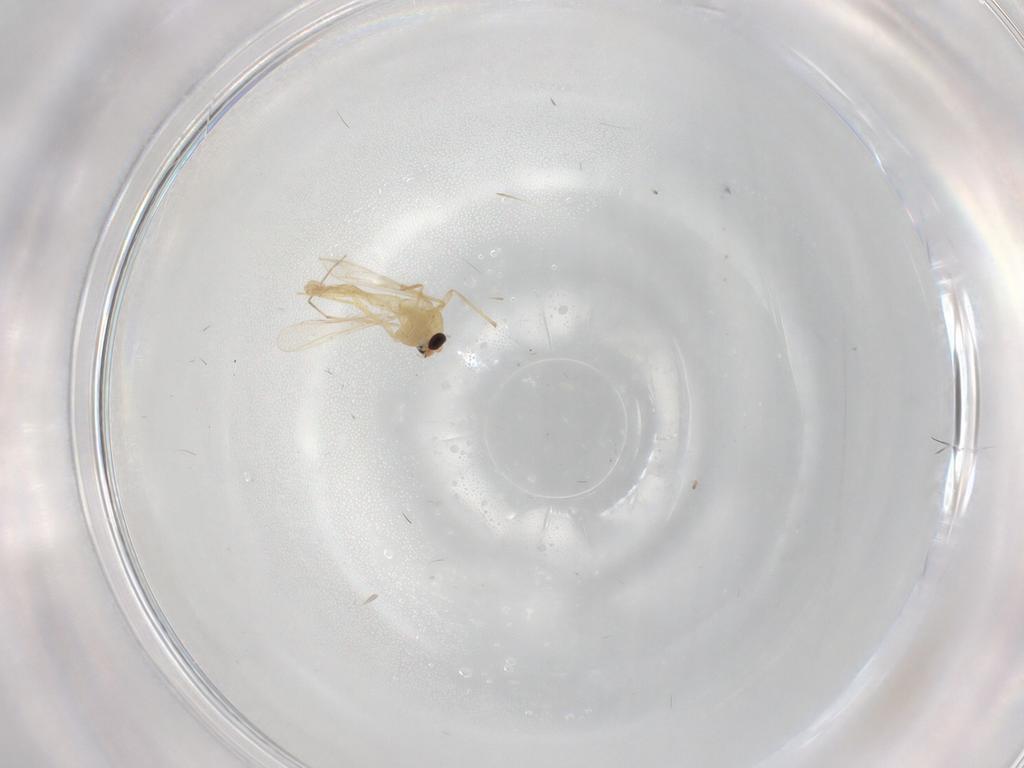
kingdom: Animalia
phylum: Arthropoda
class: Insecta
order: Diptera
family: Chironomidae
